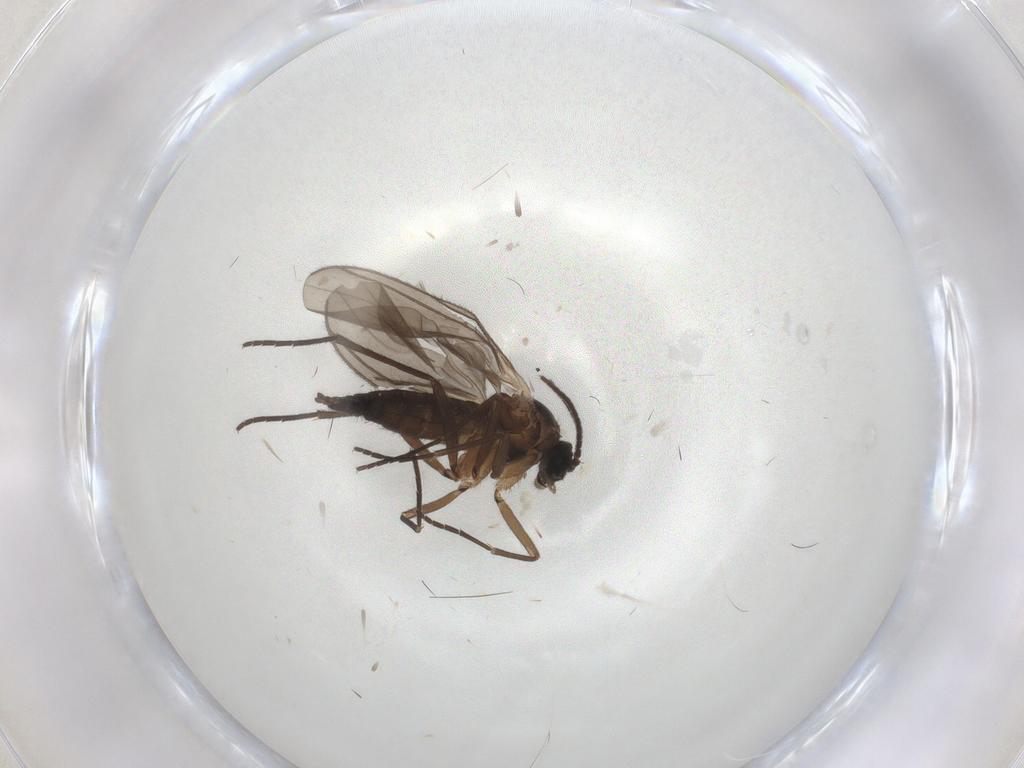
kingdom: Animalia
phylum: Arthropoda
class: Insecta
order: Diptera
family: Sciaridae
